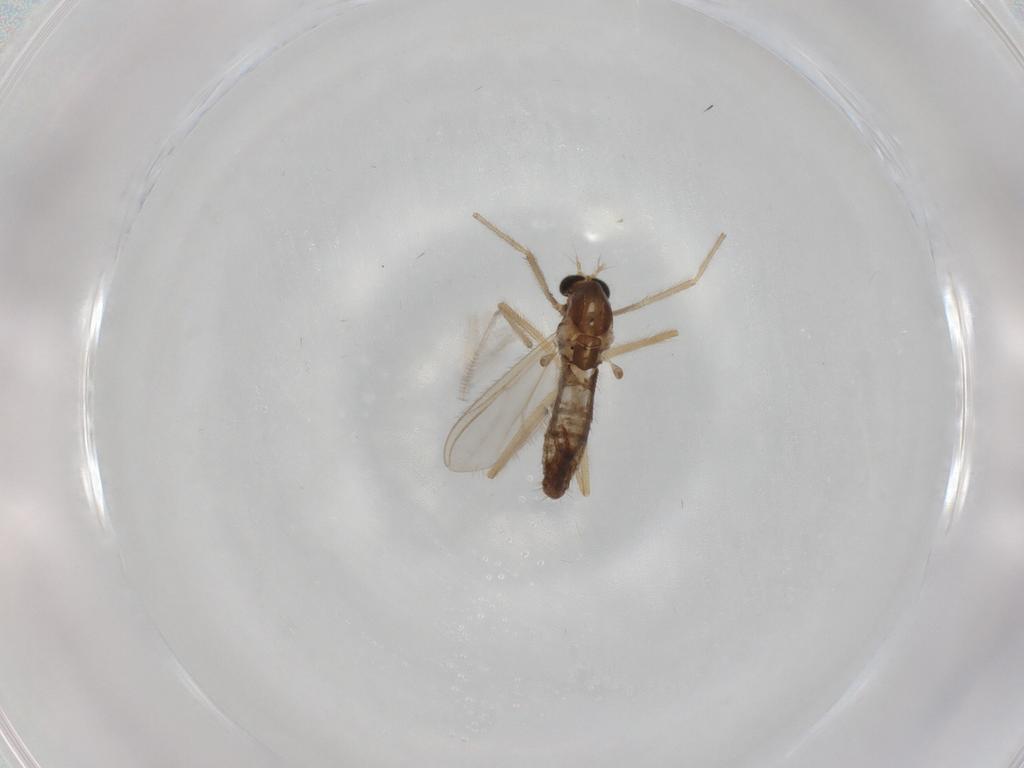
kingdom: Animalia
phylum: Arthropoda
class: Insecta
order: Diptera
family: Chironomidae
